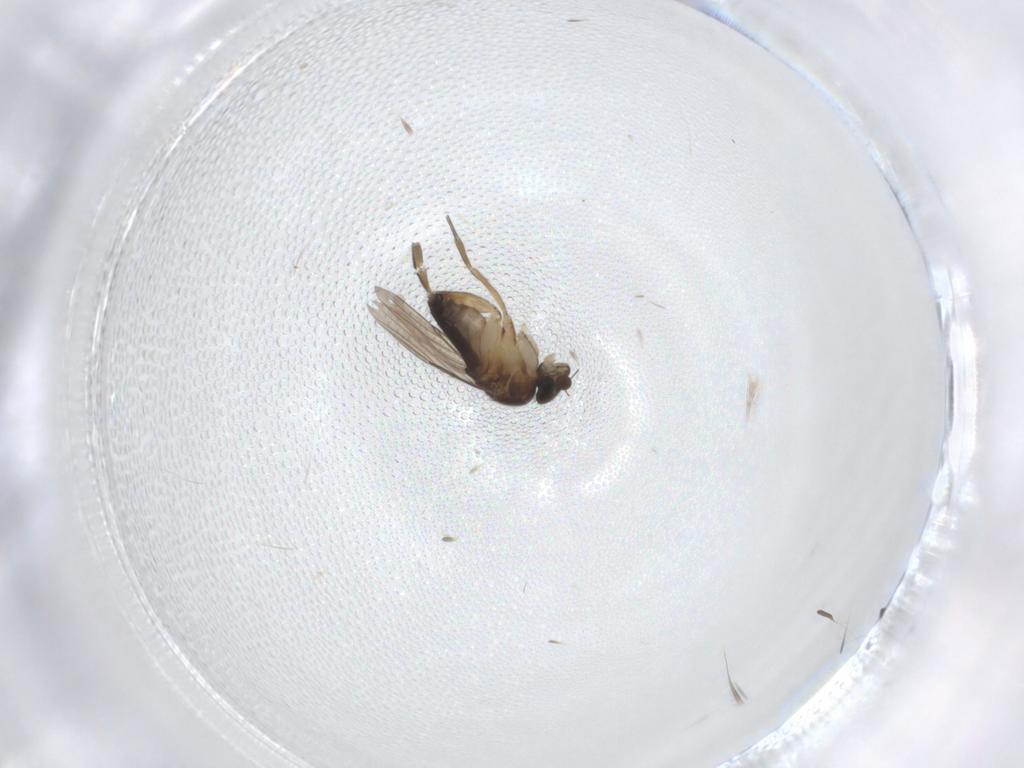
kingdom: Animalia
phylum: Arthropoda
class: Insecta
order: Diptera
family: Phoridae
